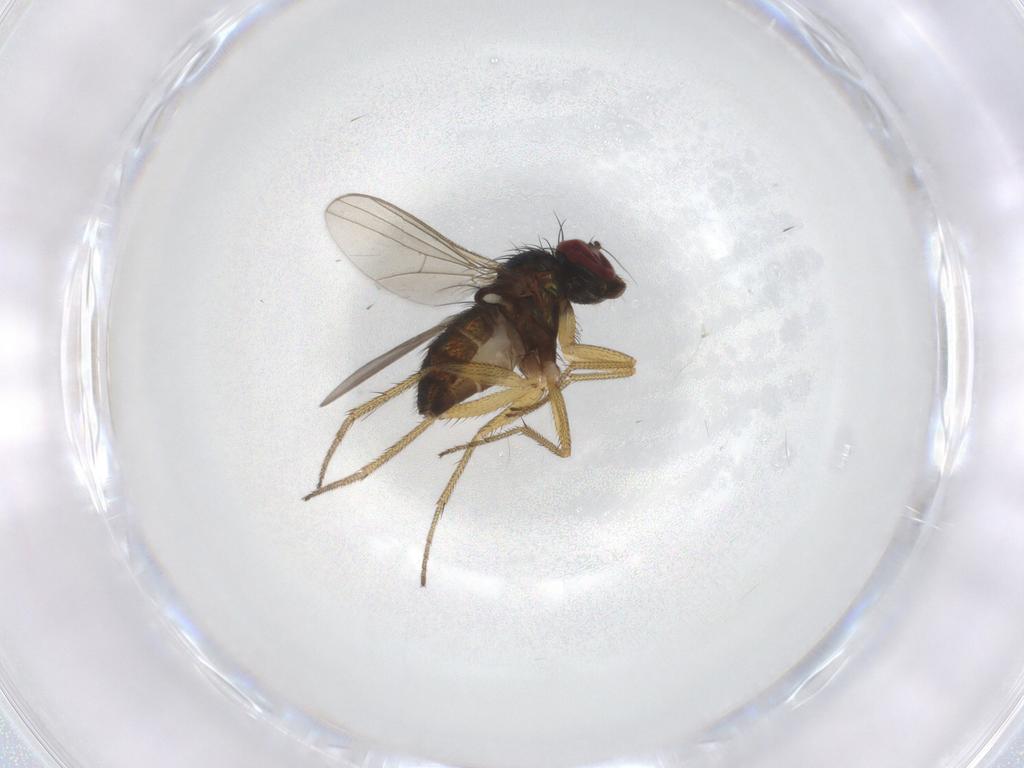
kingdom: Animalia
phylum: Arthropoda
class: Insecta
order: Diptera
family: Dolichopodidae
